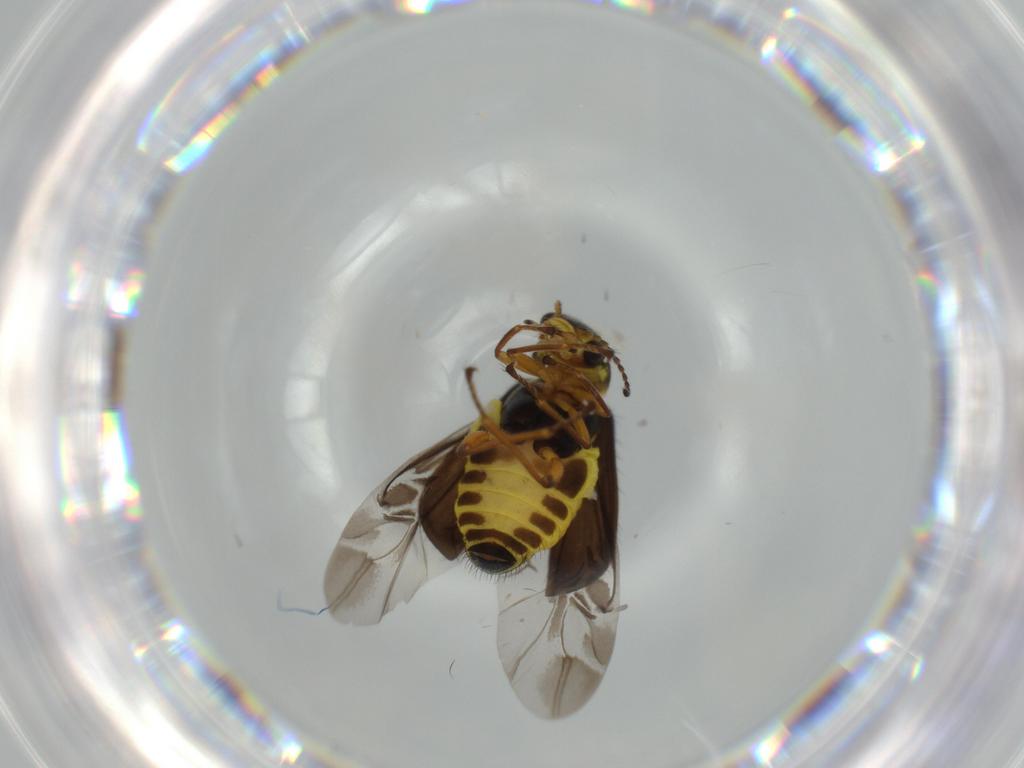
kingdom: Animalia
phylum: Arthropoda
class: Insecta
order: Coleoptera
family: Melyridae
